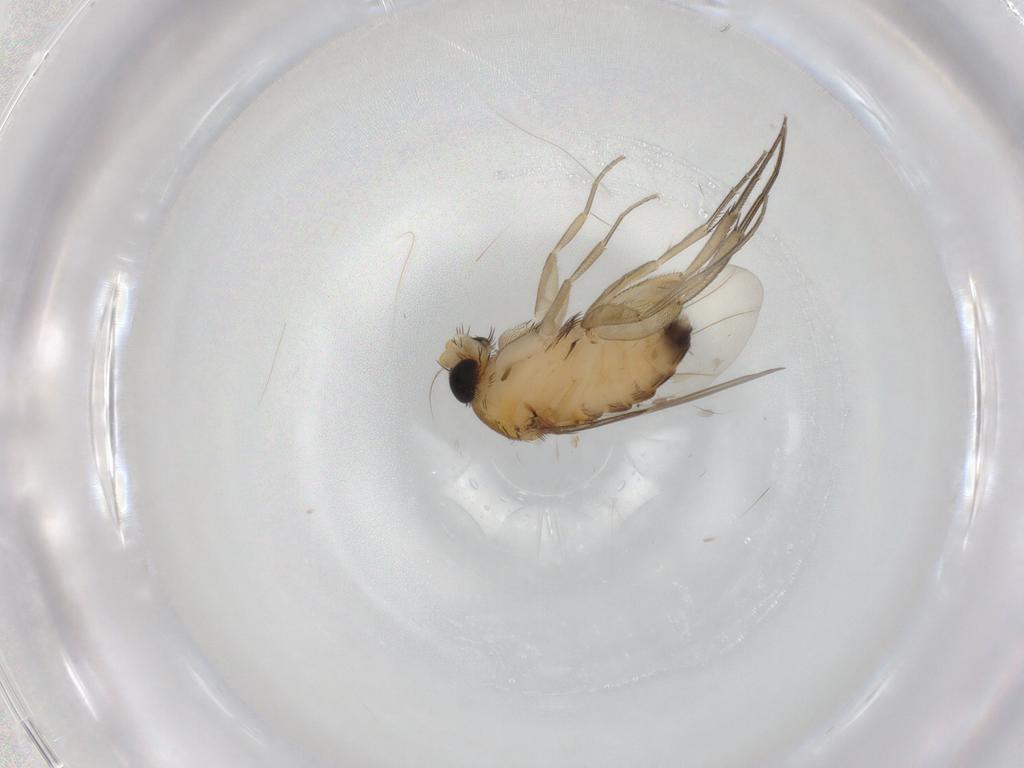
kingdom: Animalia
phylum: Arthropoda
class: Insecta
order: Diptera
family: Phoridae
